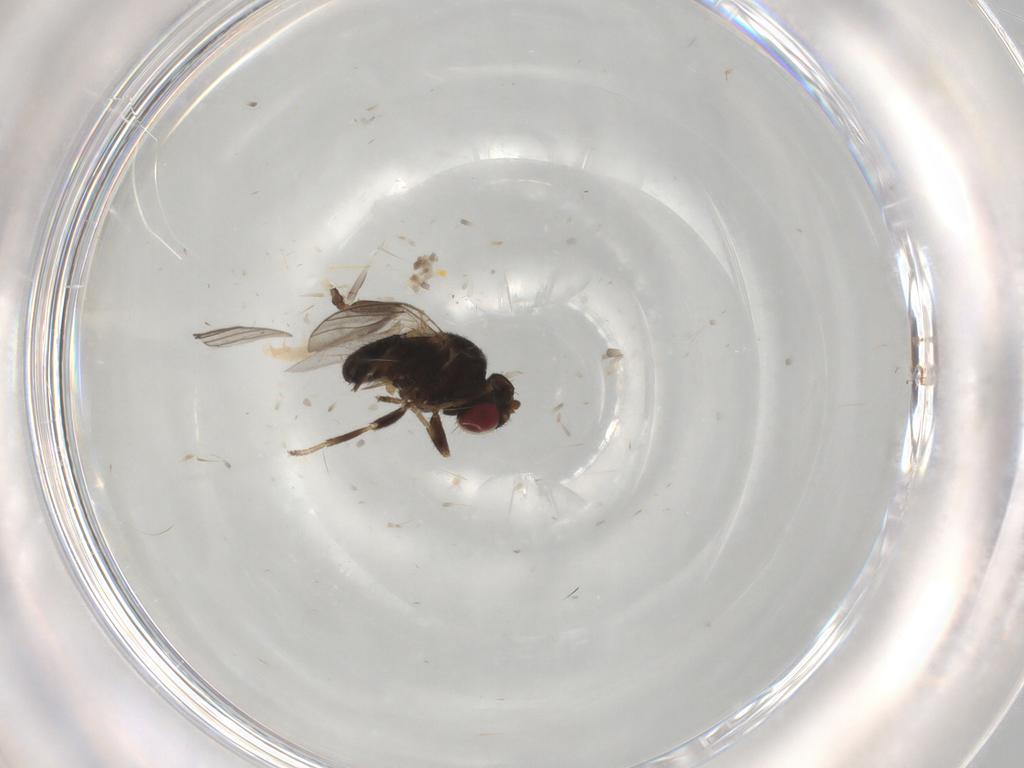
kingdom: Animalia
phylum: Arthropoda
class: Insecta
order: Diptera
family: Chloropidae
